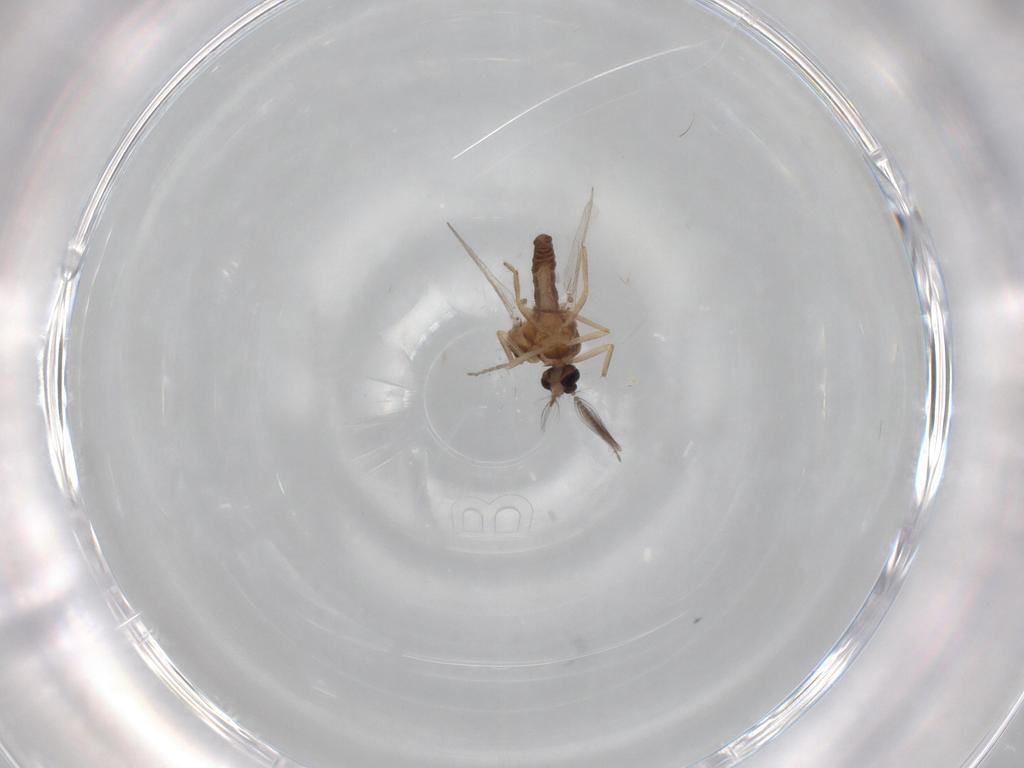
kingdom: Animalia
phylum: Arthropoda
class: Insecta
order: Diptera
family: Ceratopogonidae
